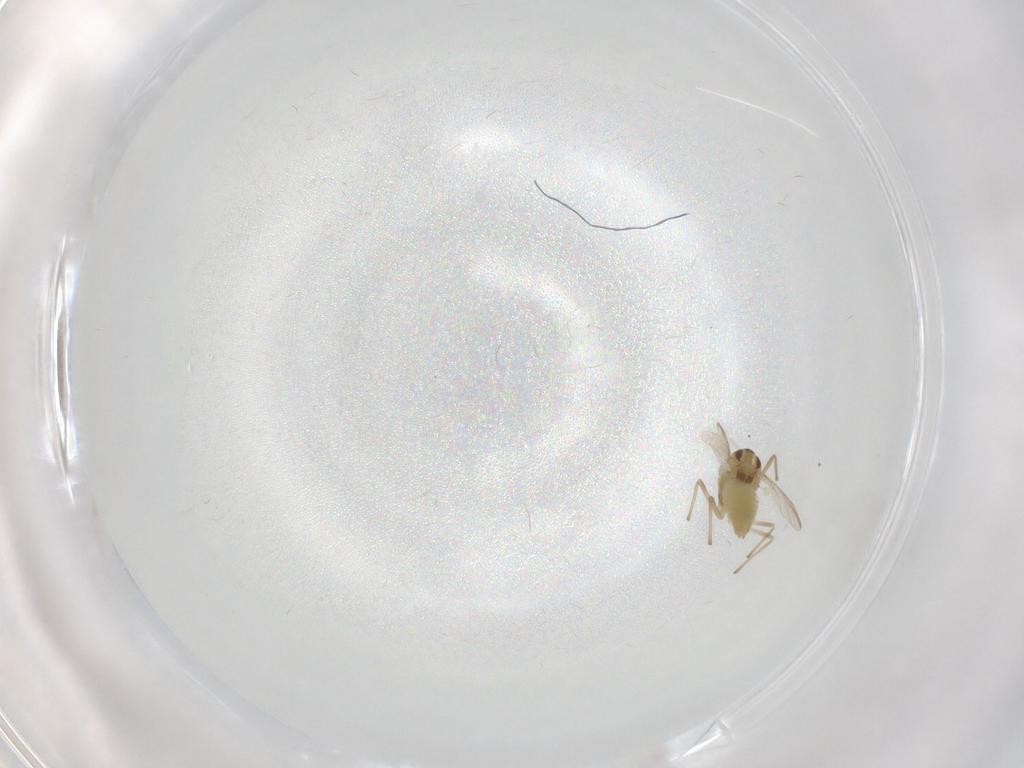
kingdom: Animalia
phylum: Arthropoda
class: Insecta
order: Diptera
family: Chironomidae
